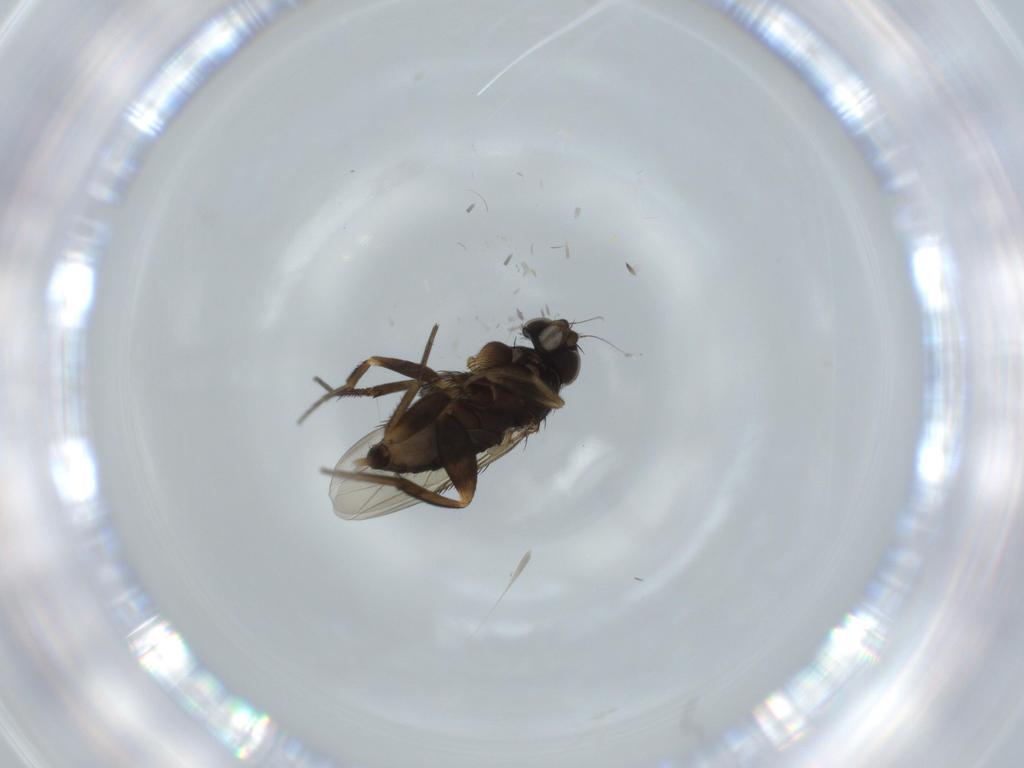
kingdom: Animalia
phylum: Arthropoda
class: Insecta
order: Diptera
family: Phoridae
